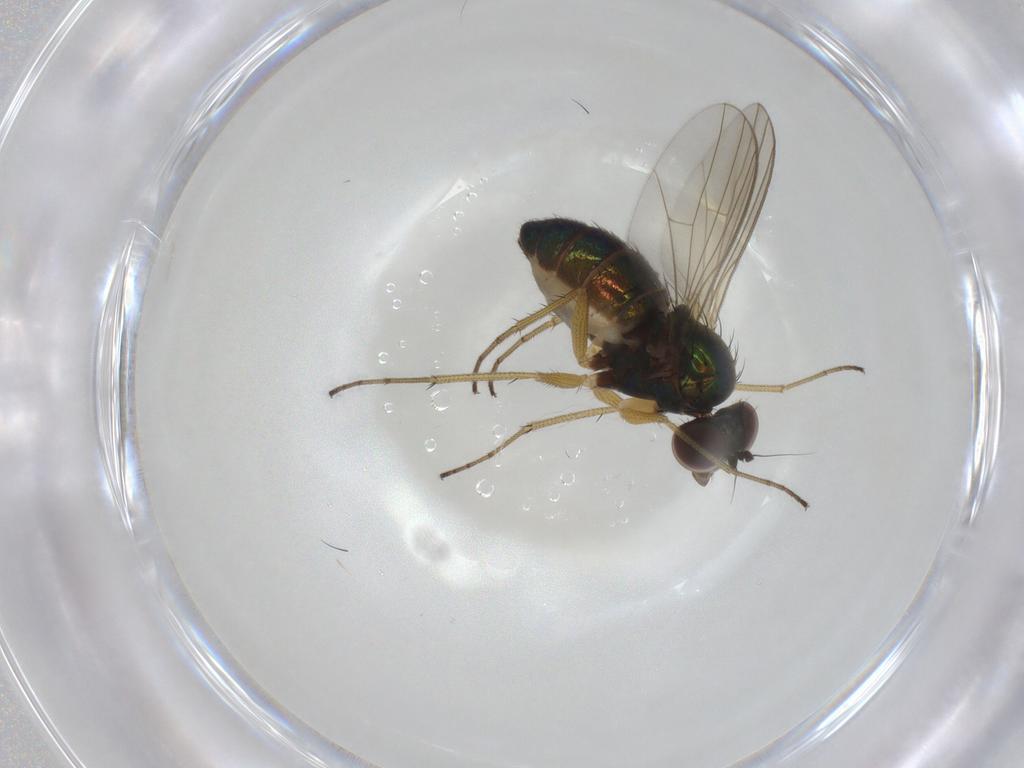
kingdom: Animalia
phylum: Arthropoda
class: Insecta
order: Diptera
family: Dolichopodidae
